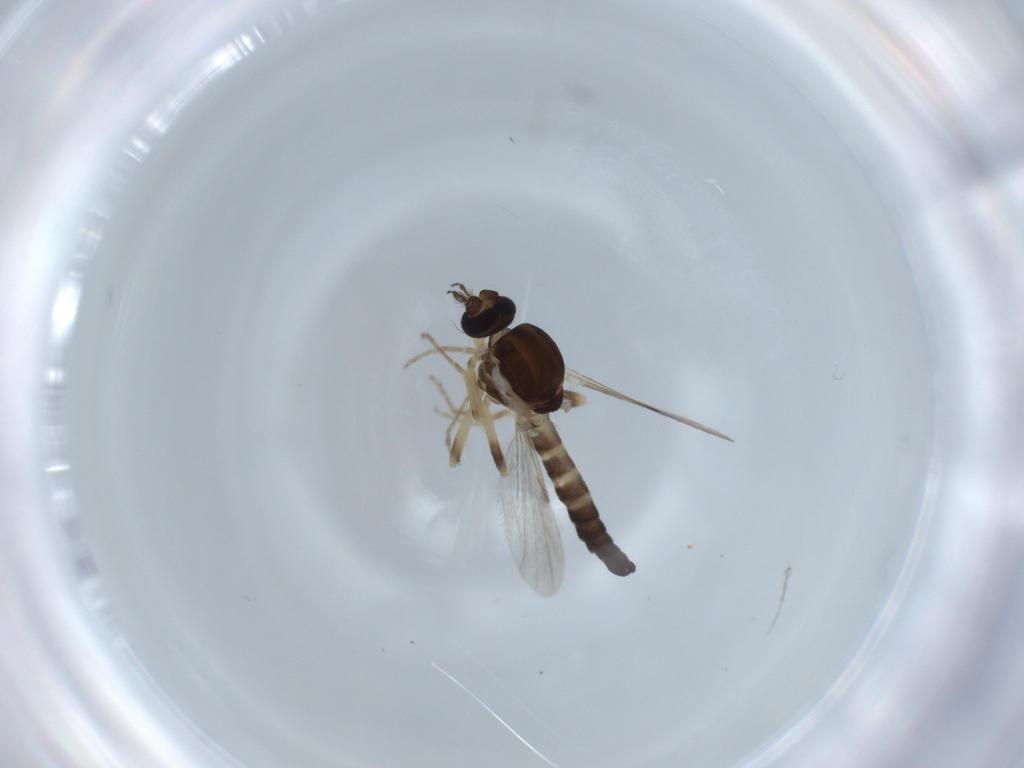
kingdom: Animalia
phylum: Arthropoda
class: Insecta
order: Diptera
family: Ceratopogonidae
